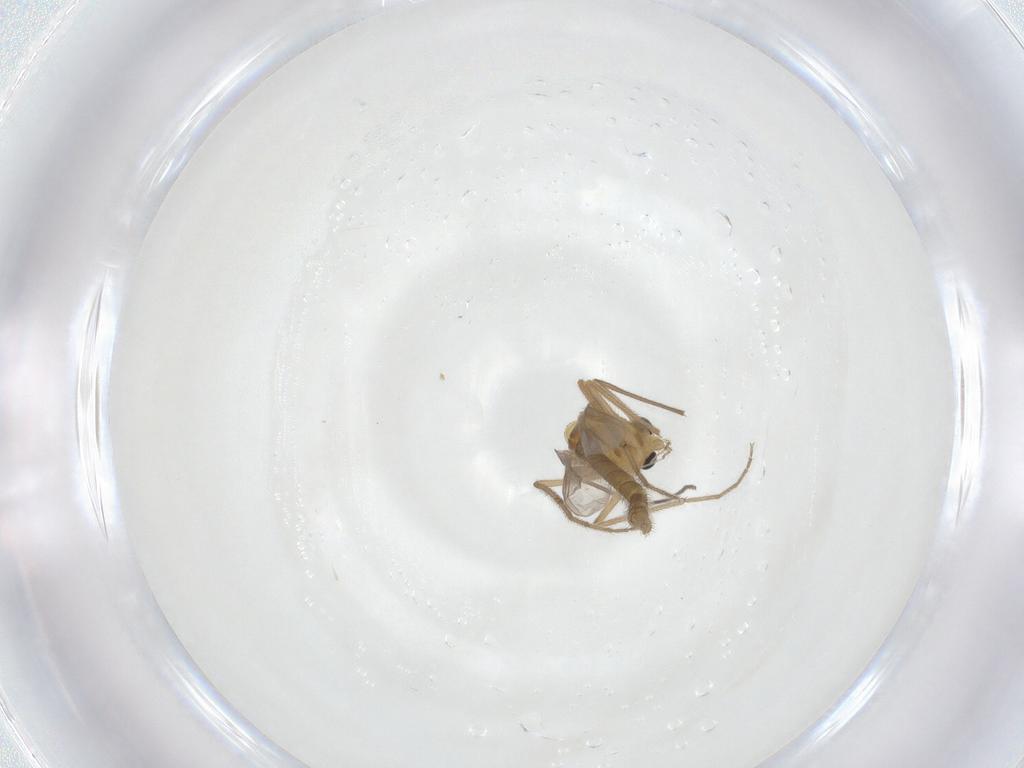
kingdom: Animalia
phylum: Arthropoda
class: Insecta
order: Diptera
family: Chironomidae
